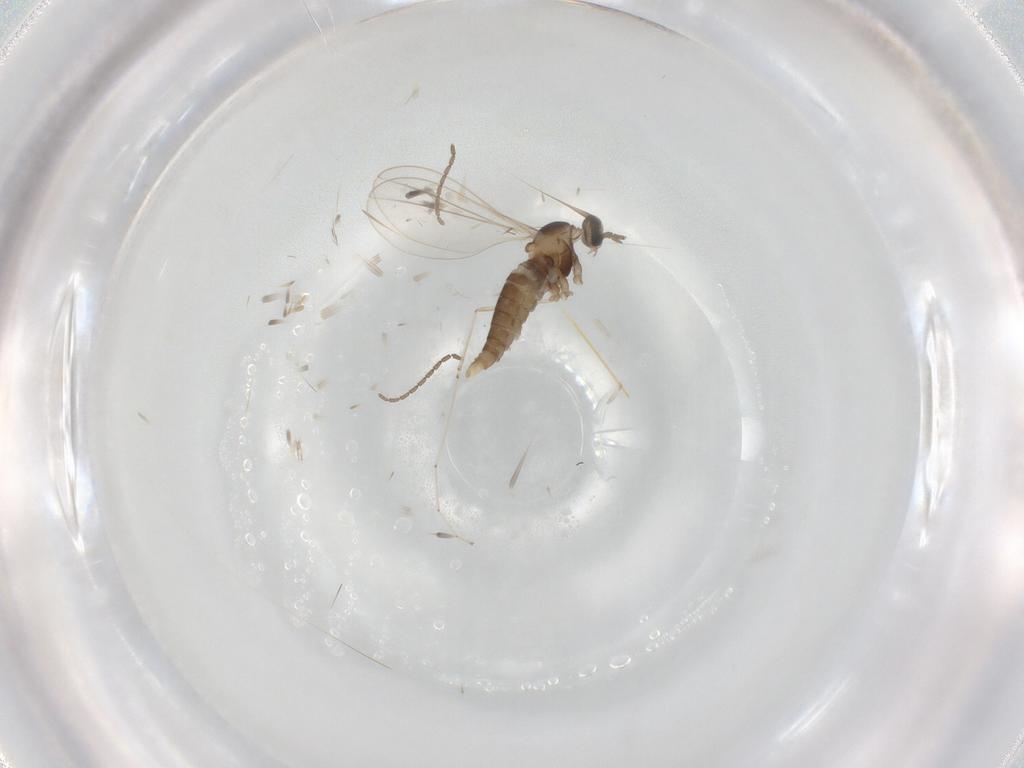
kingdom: Animalia
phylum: Arthropoda
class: Insecta
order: Diptera
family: Cecidomyiidae
